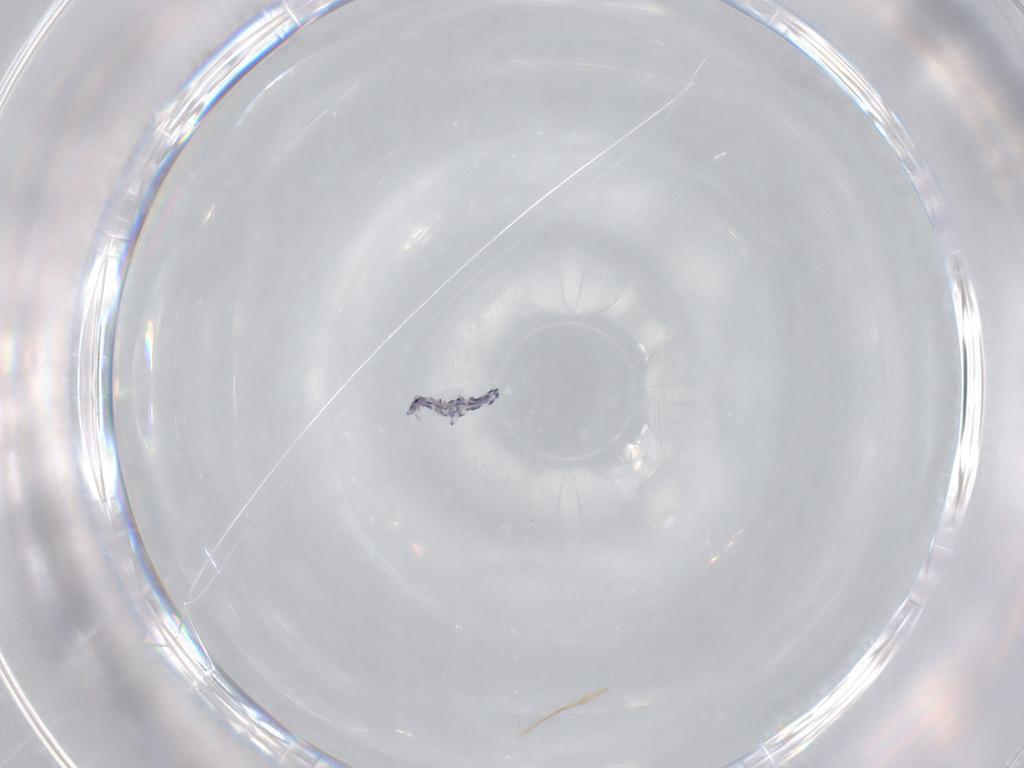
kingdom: Animalia
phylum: Arthropoda
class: Collembola
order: Entomobryomorpha
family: Entomobryidae
